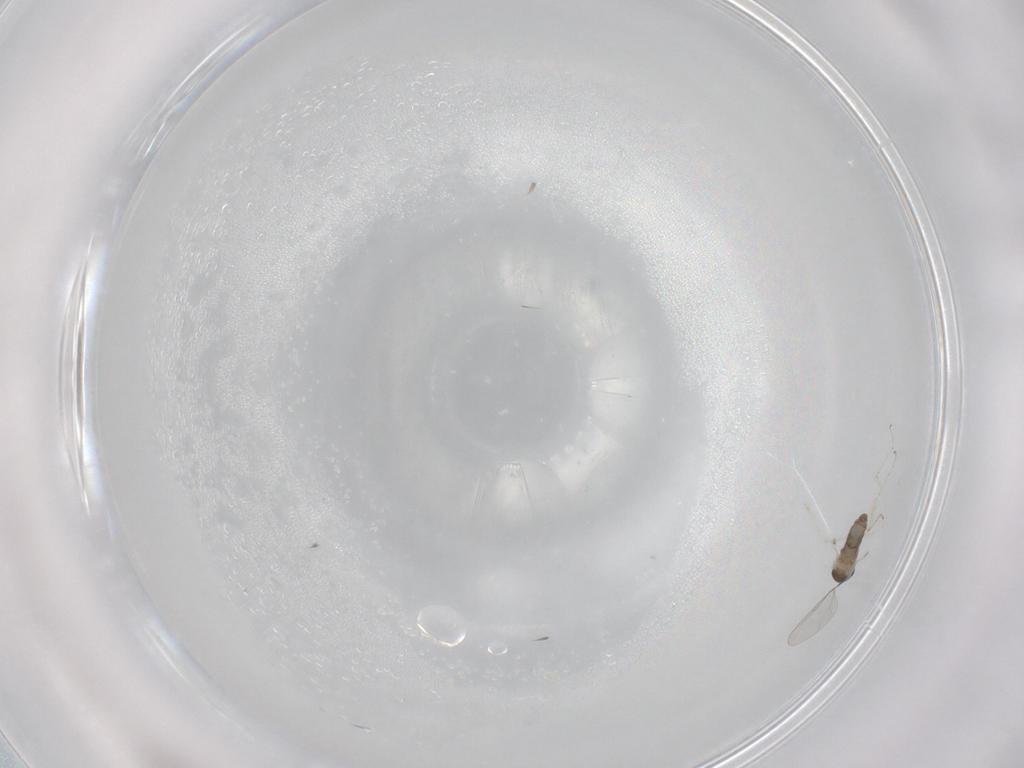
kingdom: Animalia
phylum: Arthropoda
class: Insecta
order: Diptera
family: Cecidomyiidae
